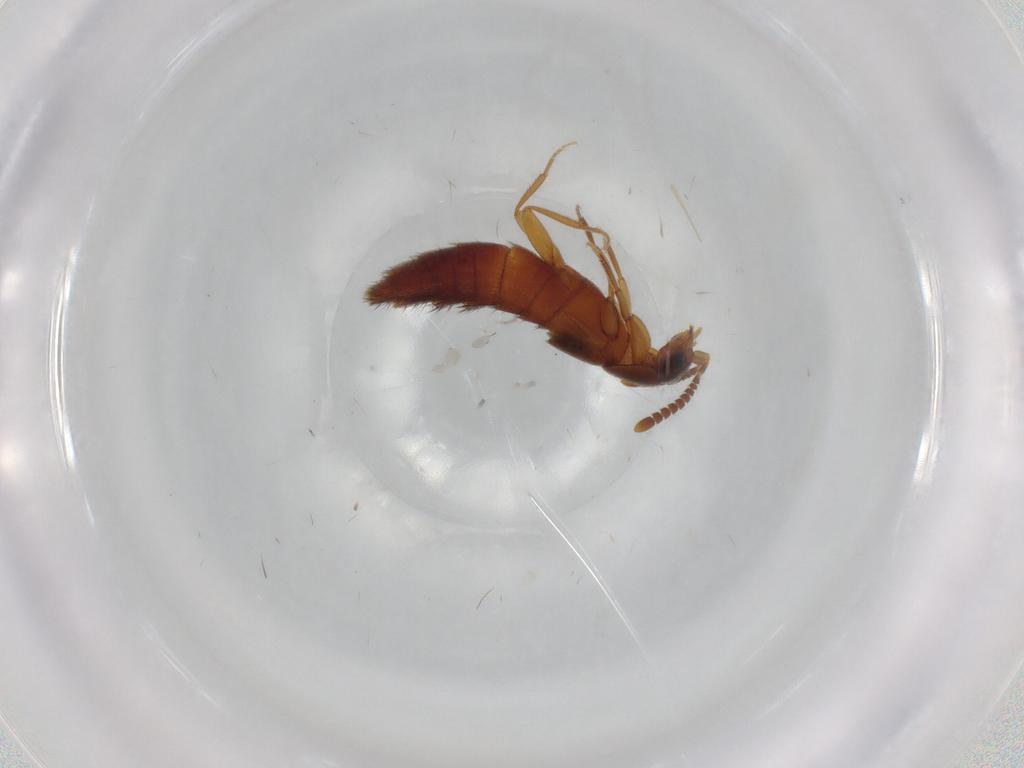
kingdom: Animalia
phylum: Arthropoda
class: Insecta
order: Coleoptera
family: Staphylinidae
